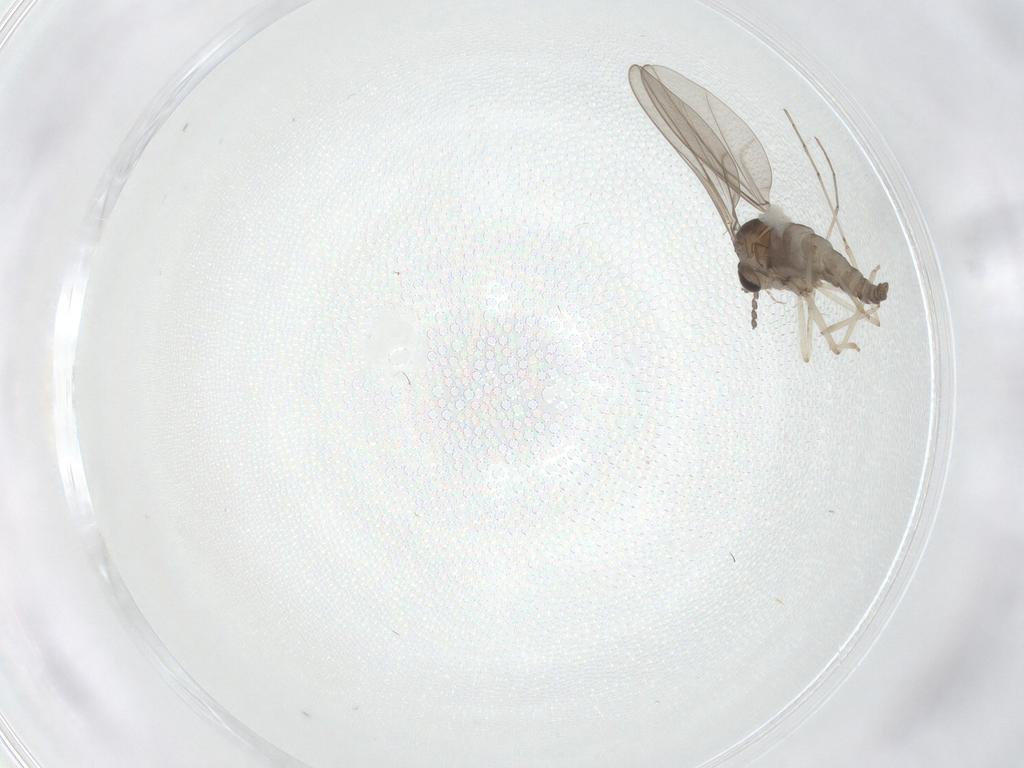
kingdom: Animalia
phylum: Arthropoda
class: Insecta
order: Diptera
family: Cecidomyiidae
